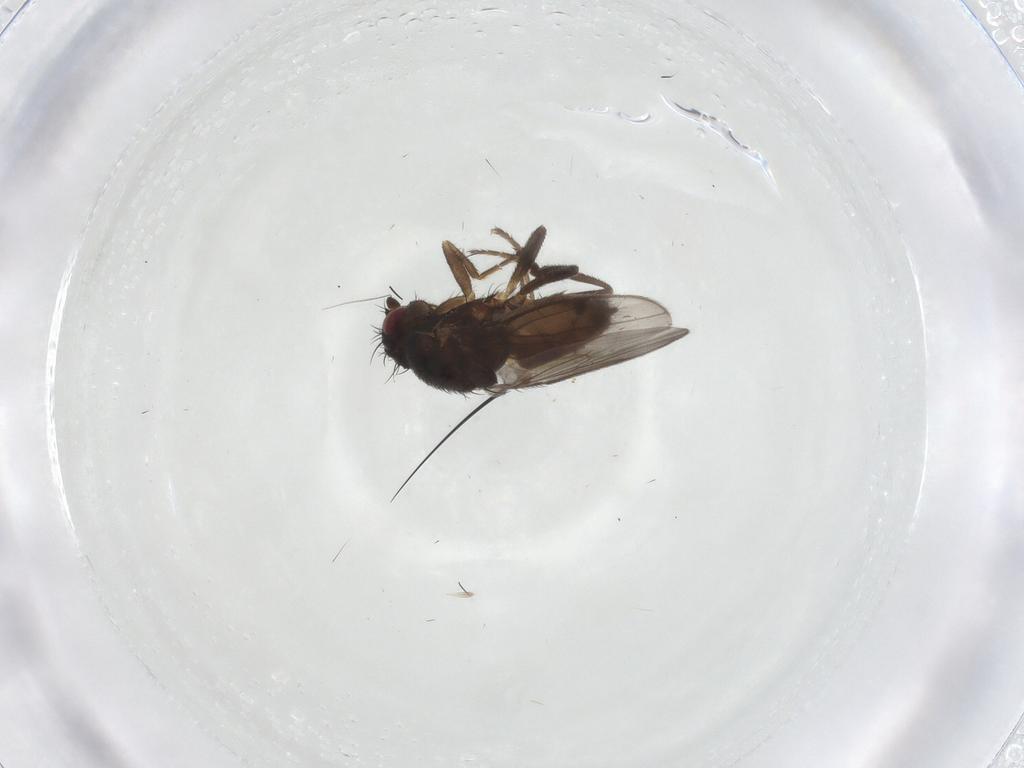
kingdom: Animalia
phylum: Arthropoda
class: Insecta
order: Diptera
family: Sphaeroceridae
